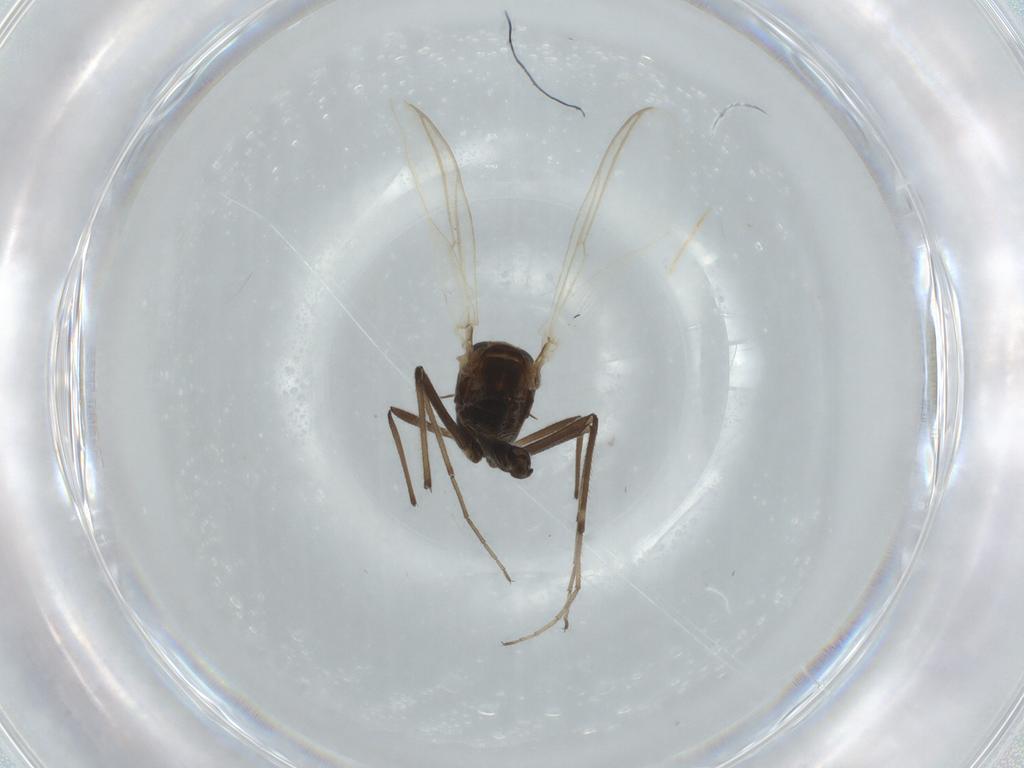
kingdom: Animalia
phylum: Arthropoda
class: Insecta
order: Diptera
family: Chironomidae
